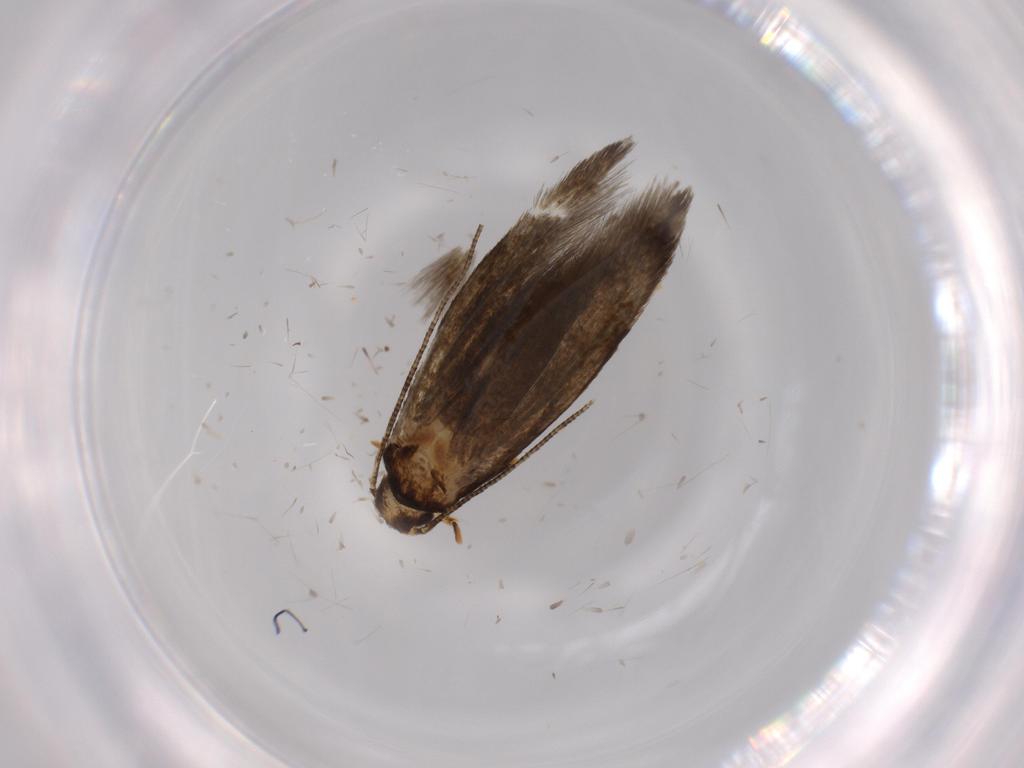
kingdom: Animalia
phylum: Arthropoda
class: Insecta
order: Lepidoptera
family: Tineidae
